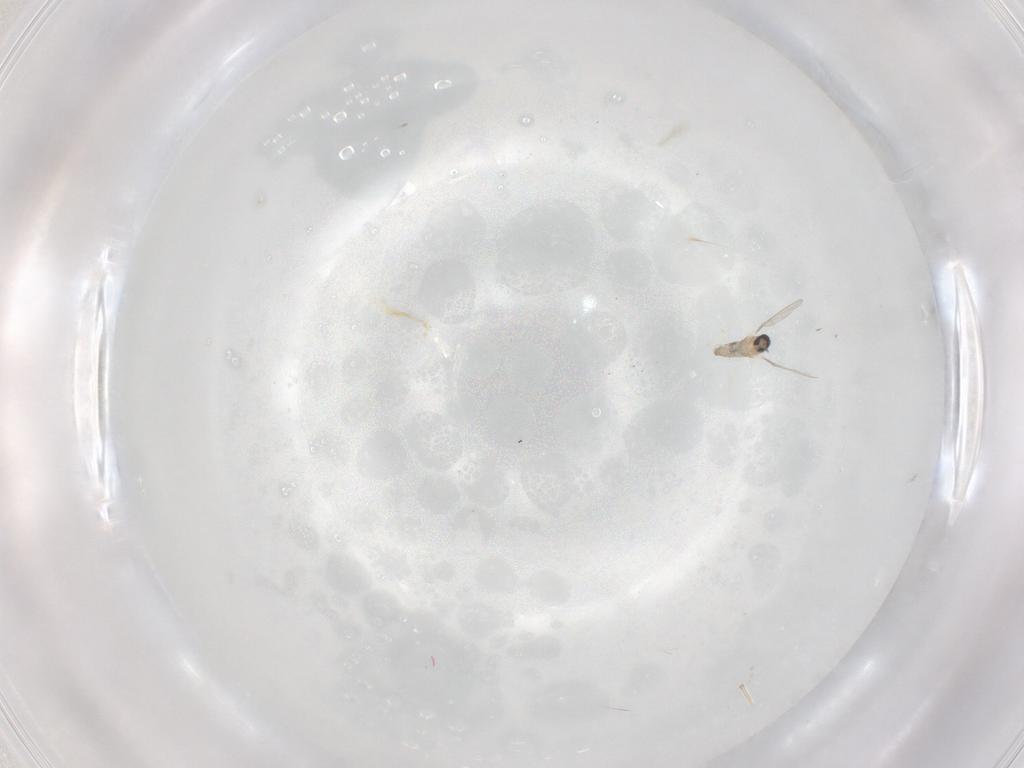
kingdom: Animalia
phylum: Arthropoda
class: Insecta
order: Diptera
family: Cecidomyiidae
